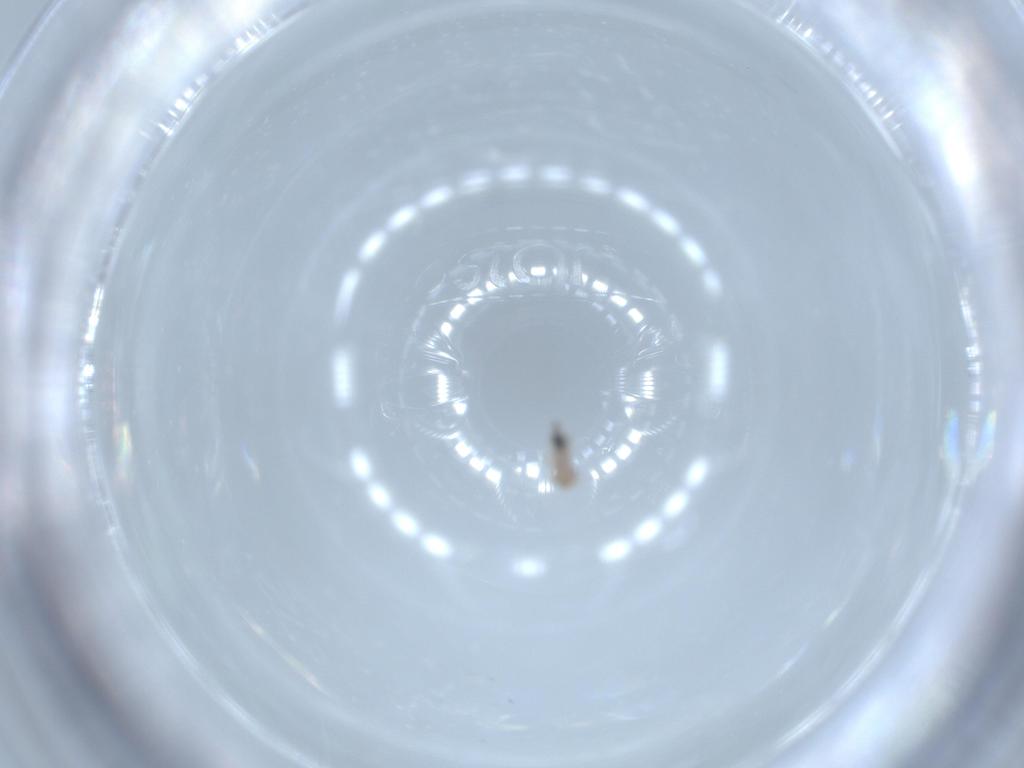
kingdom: Animalia
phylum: Arthropoda
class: Insecta
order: Psocodea
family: Psoquillidae
